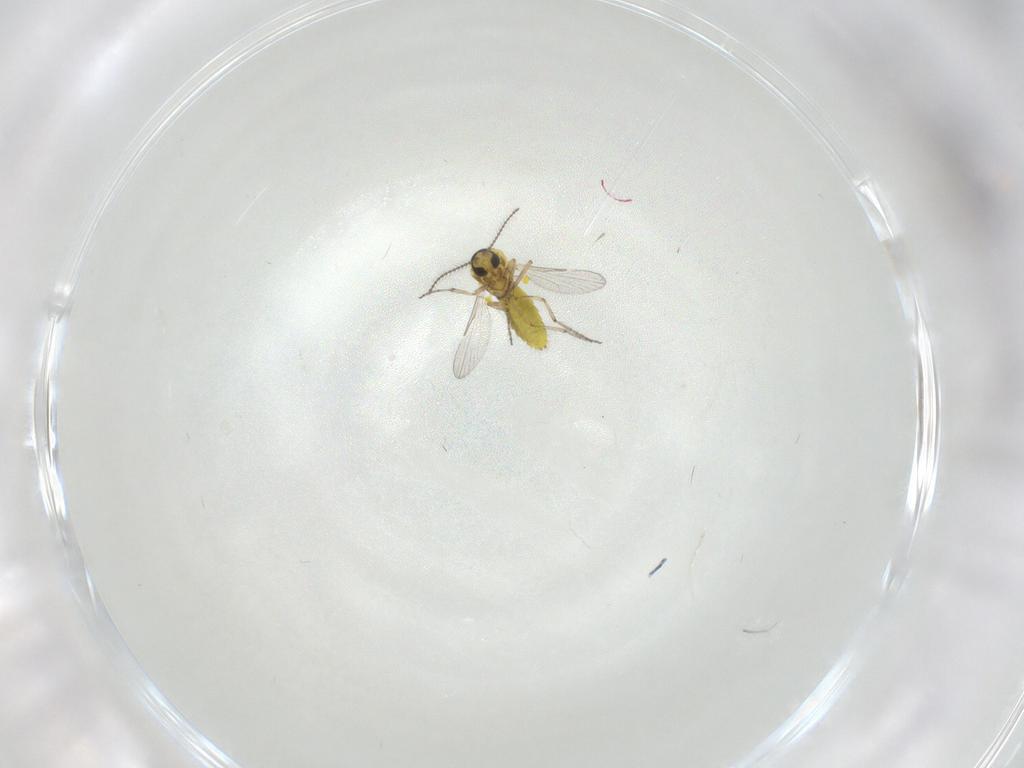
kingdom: Animalia
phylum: Arthropoda
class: Insecta
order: Diptera
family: Ceratopogonidae
